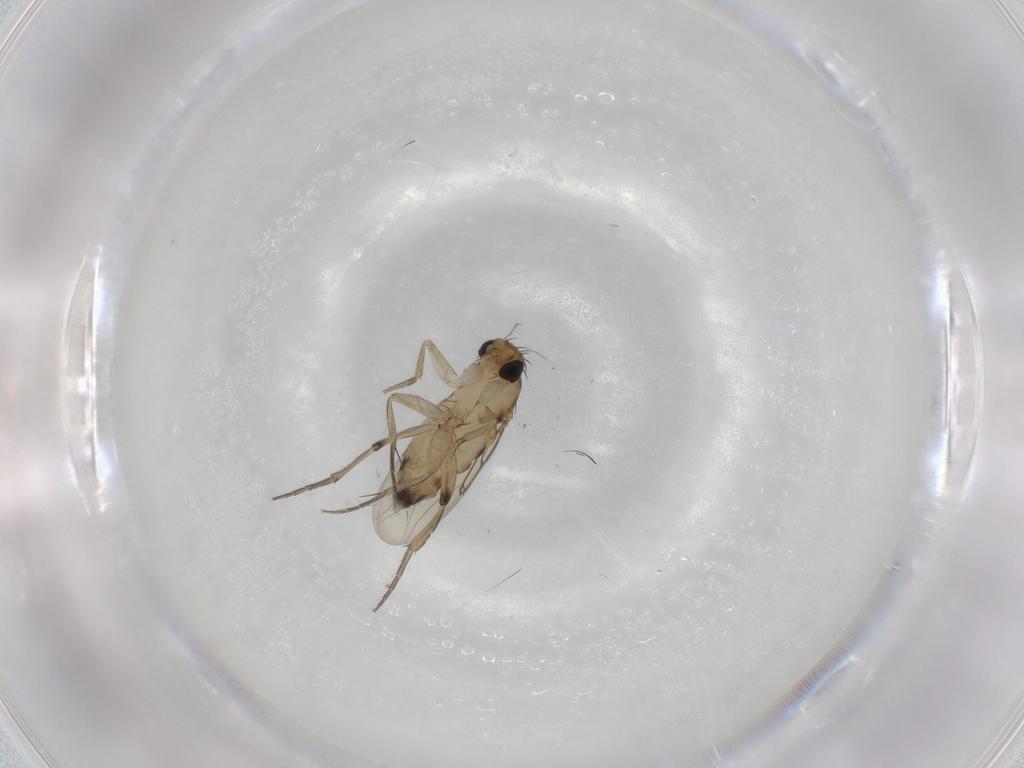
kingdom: Animalia
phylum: Arthropoda
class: Insecta
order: Diptera
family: Phoridae
